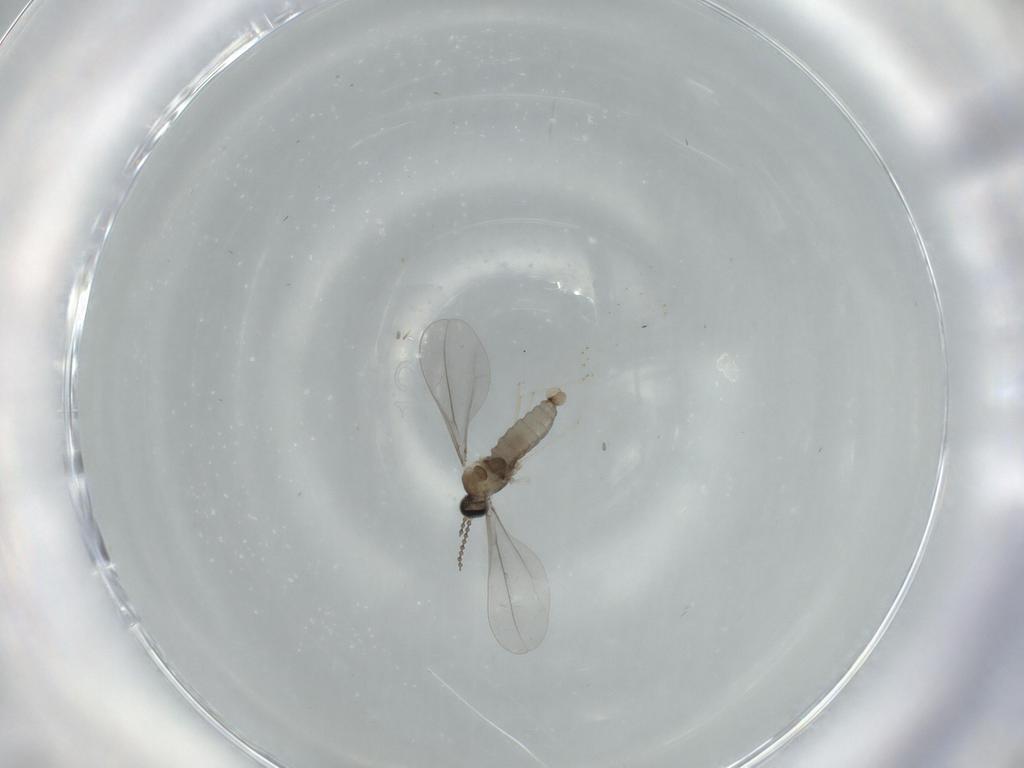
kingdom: Animalia
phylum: Arthropoda
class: Insecta
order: Diptera
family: Cecidomyiidae
